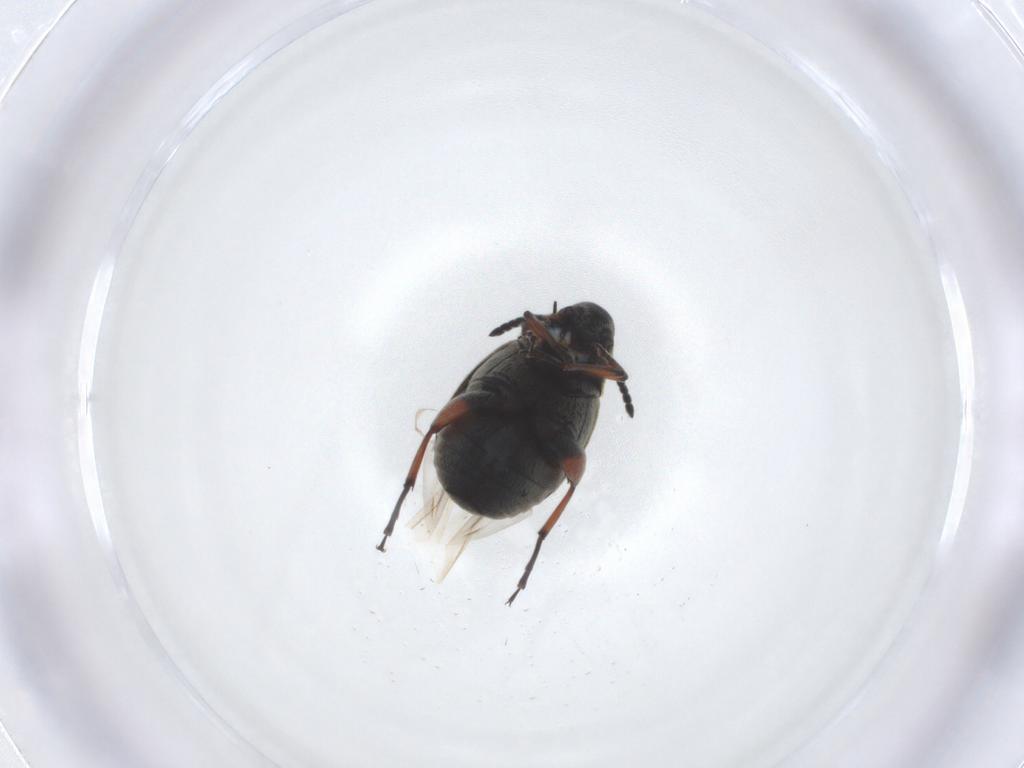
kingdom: Animalia
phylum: Arthropoda
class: Insecta
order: Coleoptera
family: Chrysomelidae
